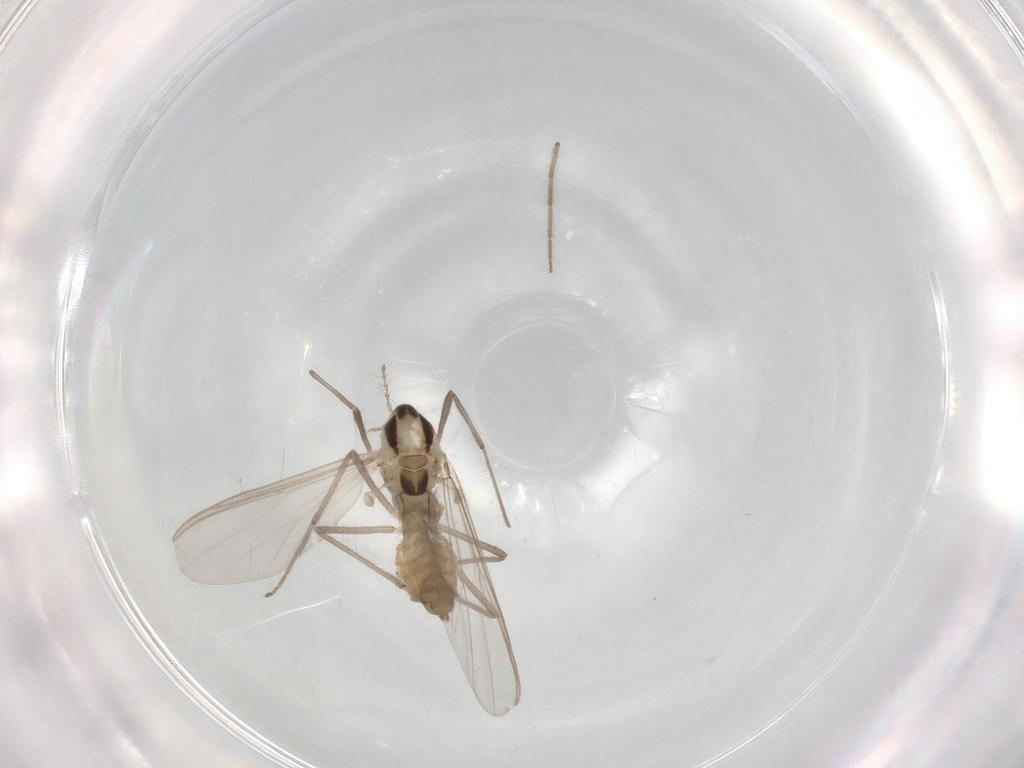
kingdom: Animalia
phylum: Arthropoda
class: Insecta
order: Diptera
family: Chironomidae
